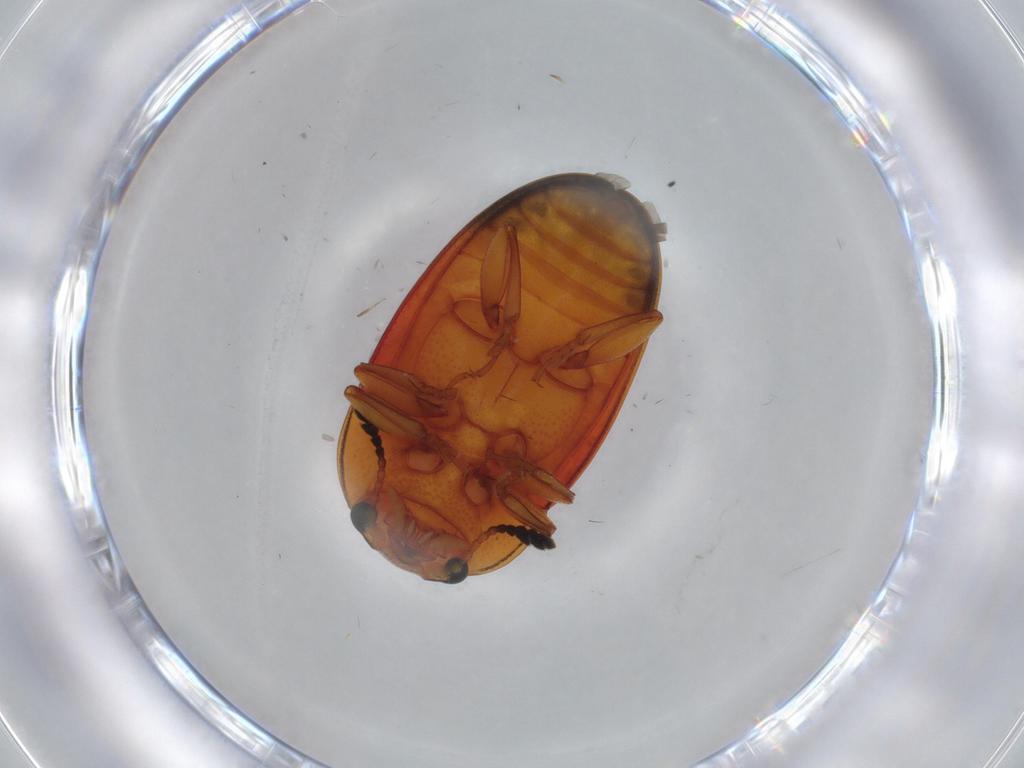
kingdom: Animalia
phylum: Arthropoda
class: Insecta
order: Coleoptera
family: Erotylidae
